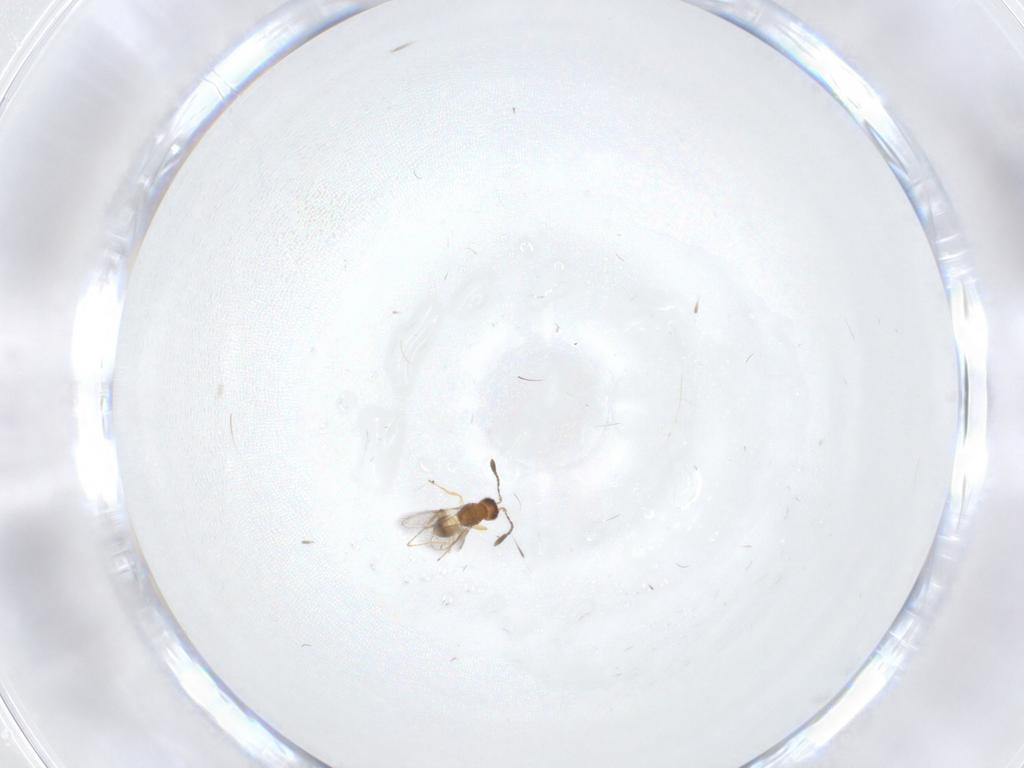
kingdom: Animalia
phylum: Arthropoda
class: Insecta
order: Hymenoptera
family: Mymaridae
